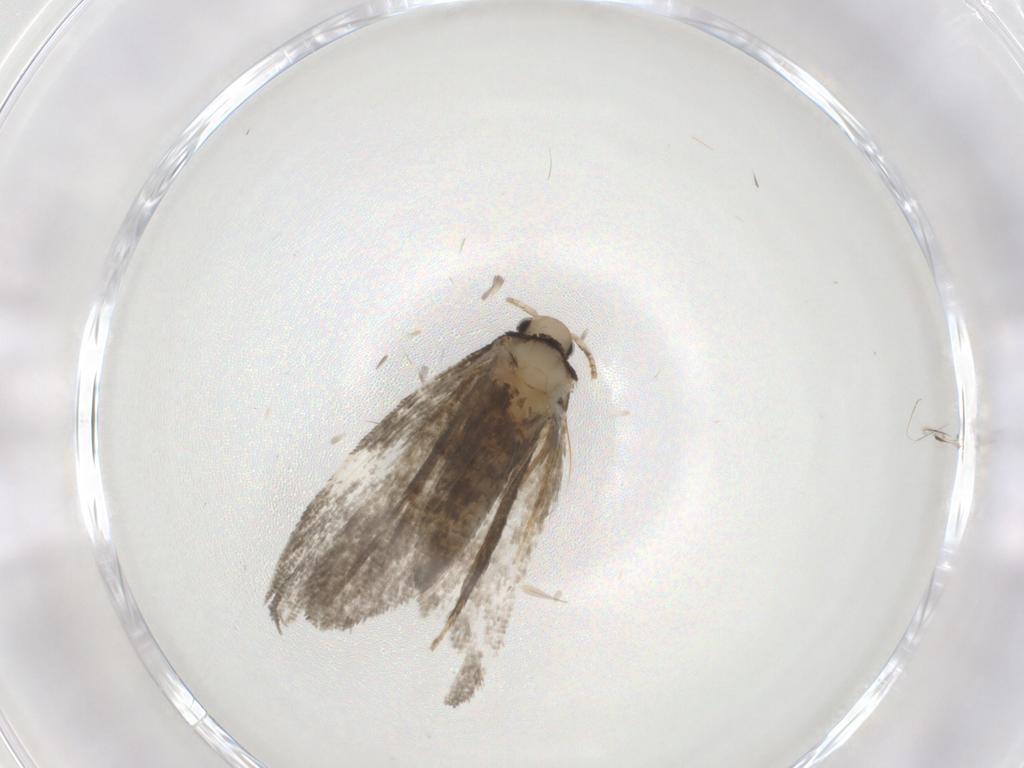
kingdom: Animalia
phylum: Arthropoda
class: Insecta
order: Lepidoptera
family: Psychidae
